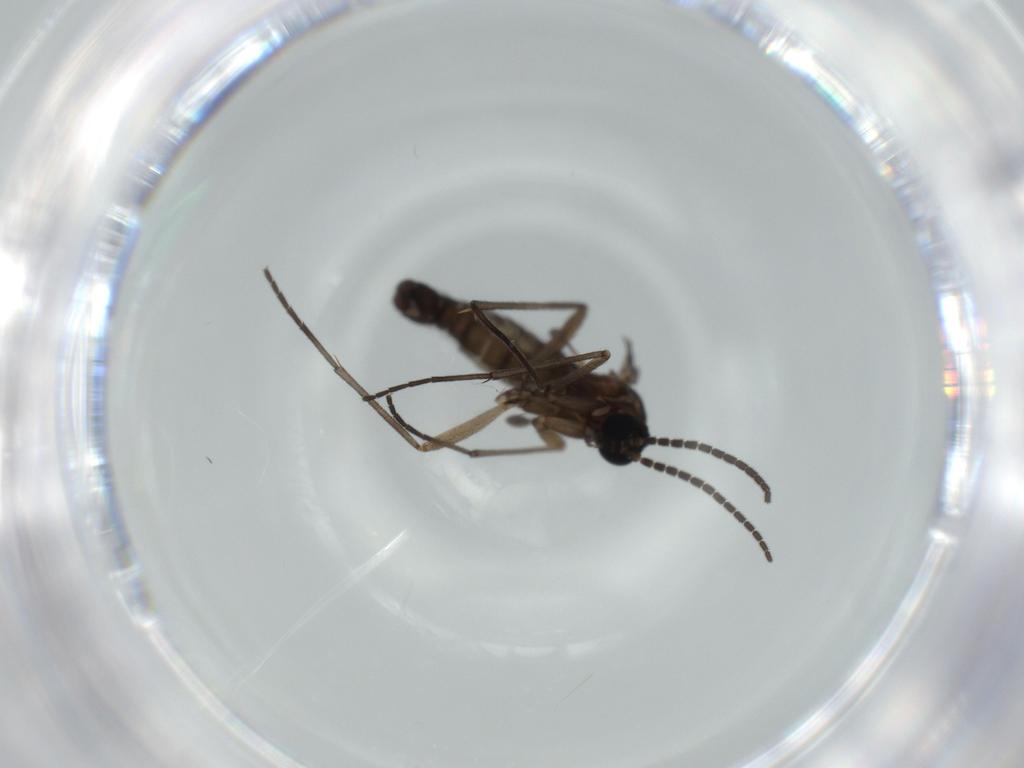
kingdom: Animalia
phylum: Arthropoda
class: Insecta
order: Diptera
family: Sciaridae
